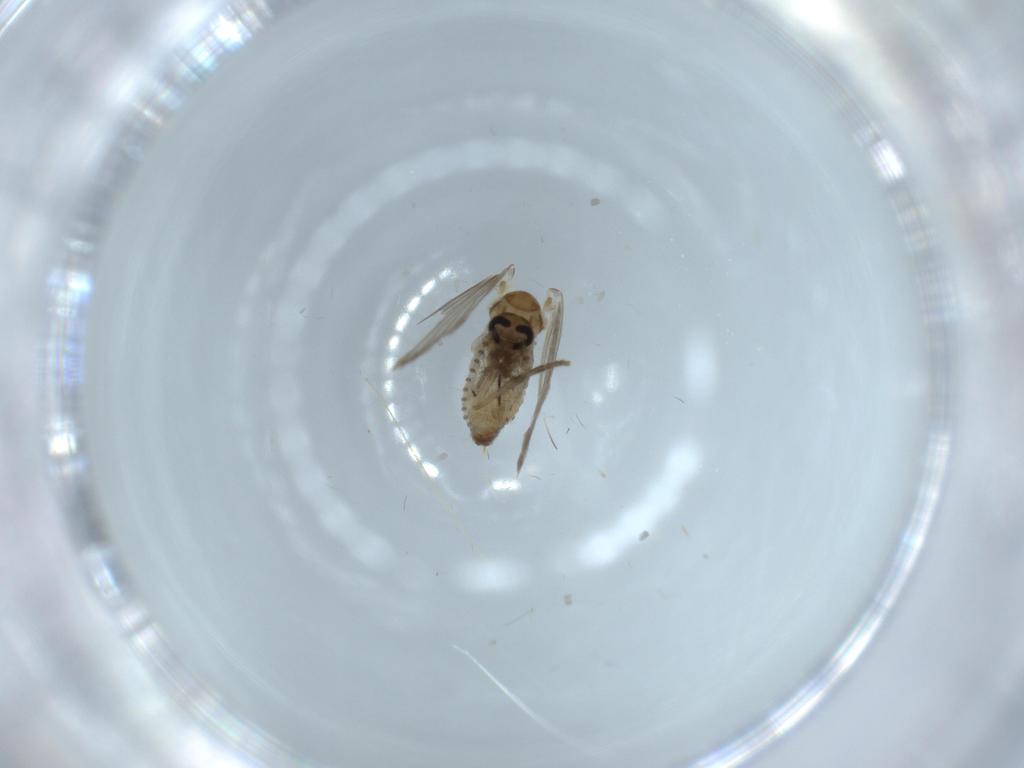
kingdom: Animalia
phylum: Arthropoda
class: Insecta
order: Diptera
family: Psychodidae
